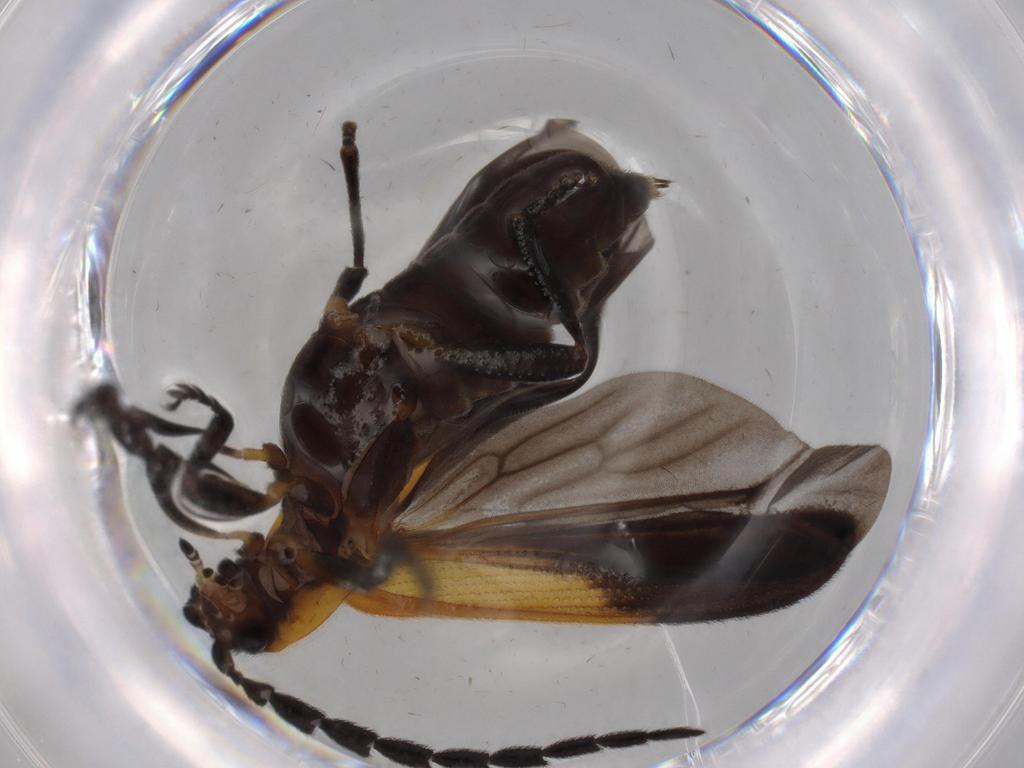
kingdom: Animalia
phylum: Arthropoda
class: Insecta
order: Coleoptera
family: Lycidae
